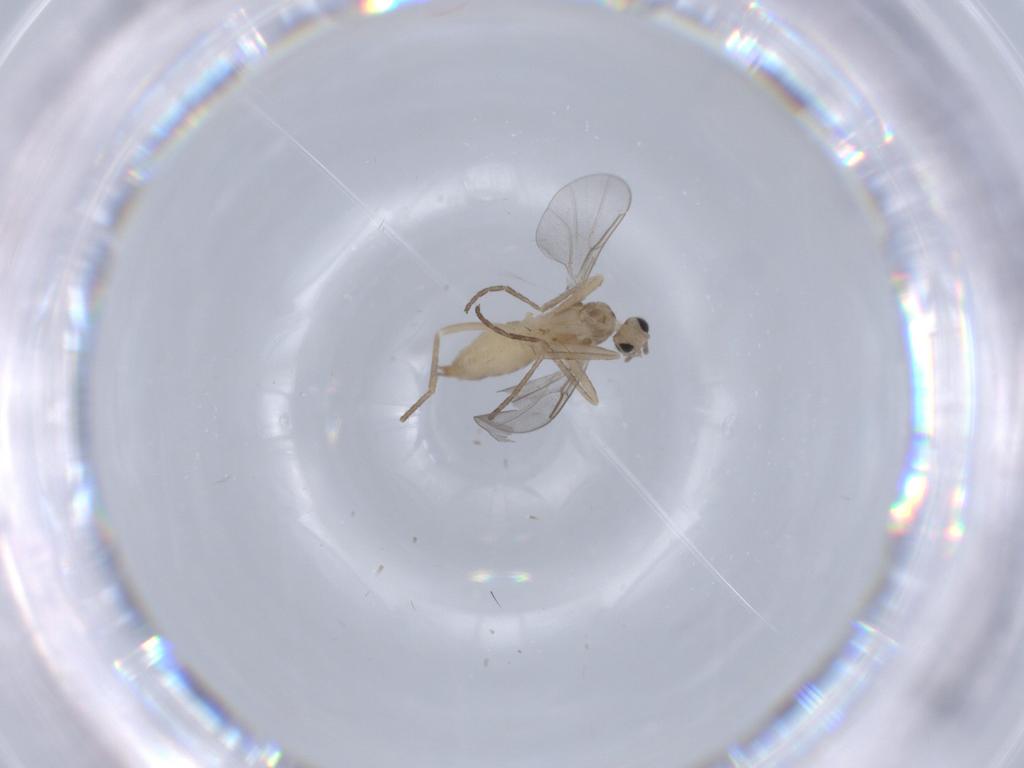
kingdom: Animalia
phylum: Arthropoda
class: Insecta
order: Diptera
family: Cecidomyiidae
